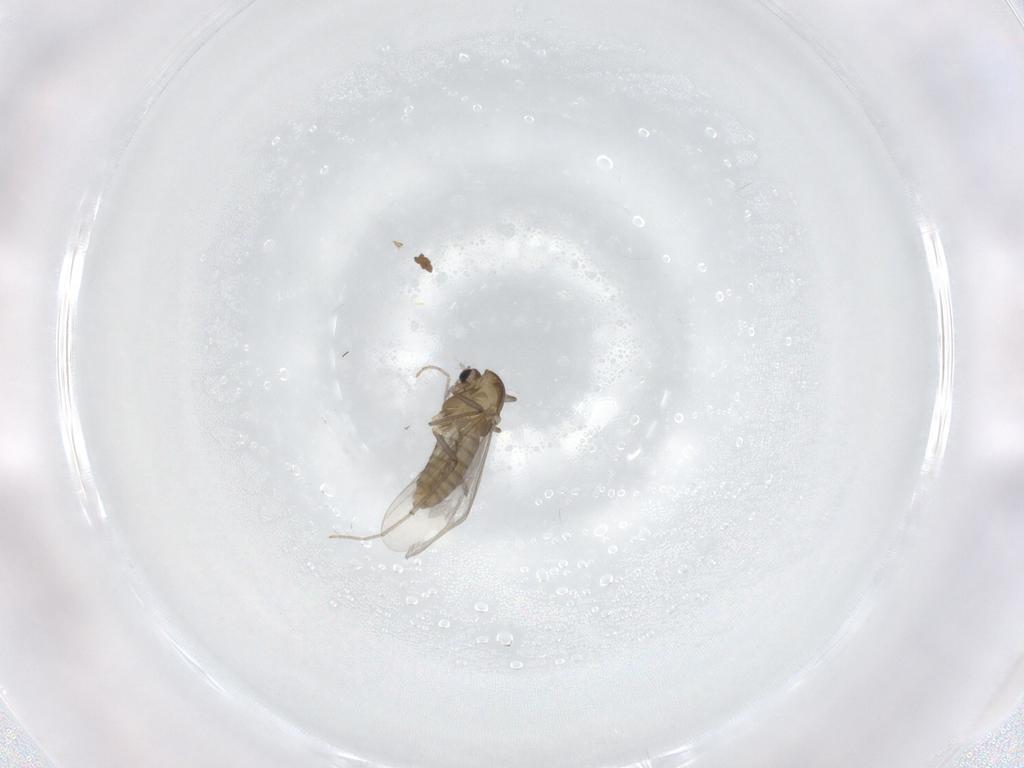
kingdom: Animalia
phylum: Arthropoda
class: Insecta
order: Diptera
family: Chironomidae
